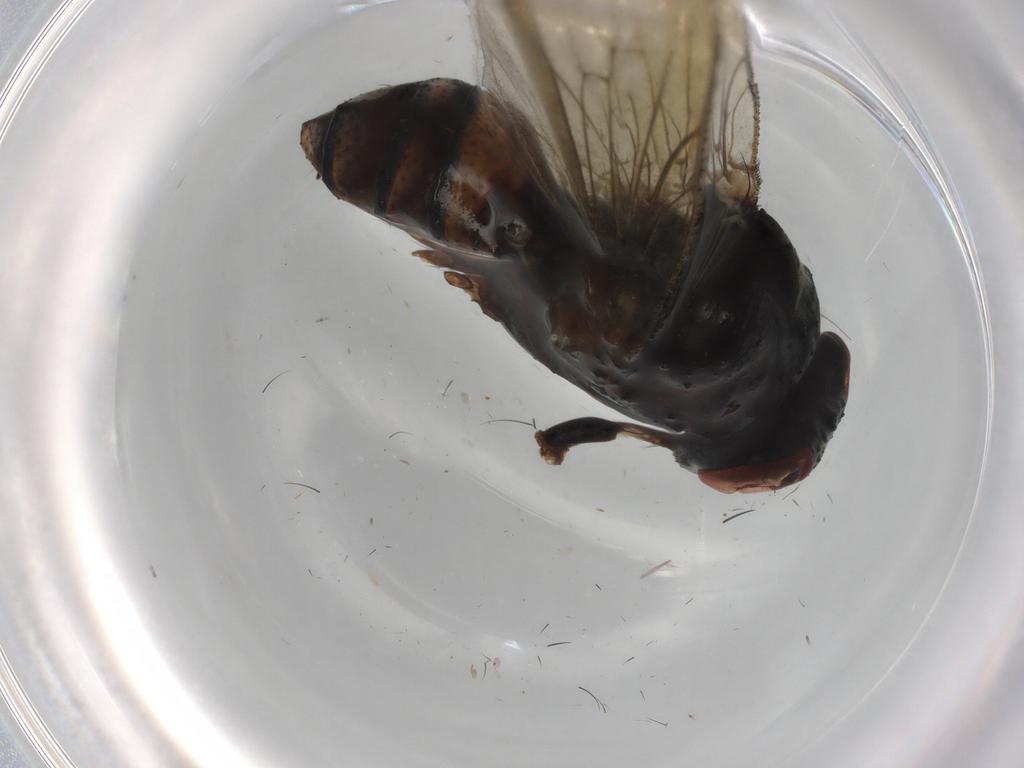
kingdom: Animalia
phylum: Arthropoda
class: Insecta
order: Diptera
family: Anthomyiidae
